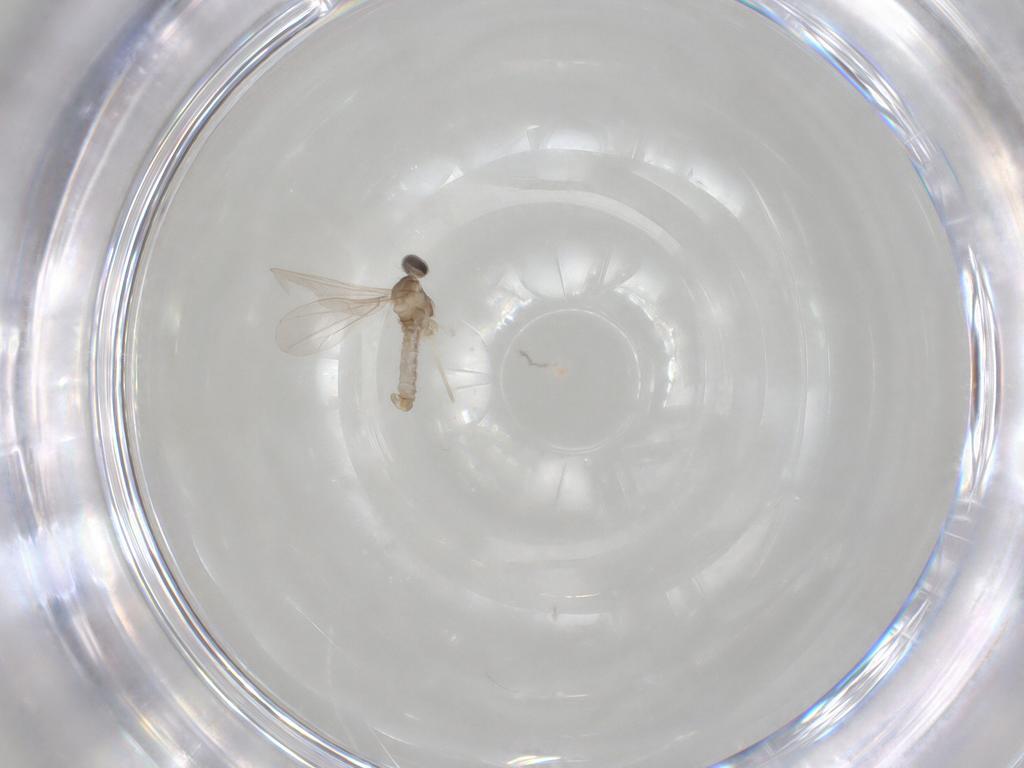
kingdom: Animalia
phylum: Arthropoda
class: Insecta
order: Diptera
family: Cecidomyiidae
